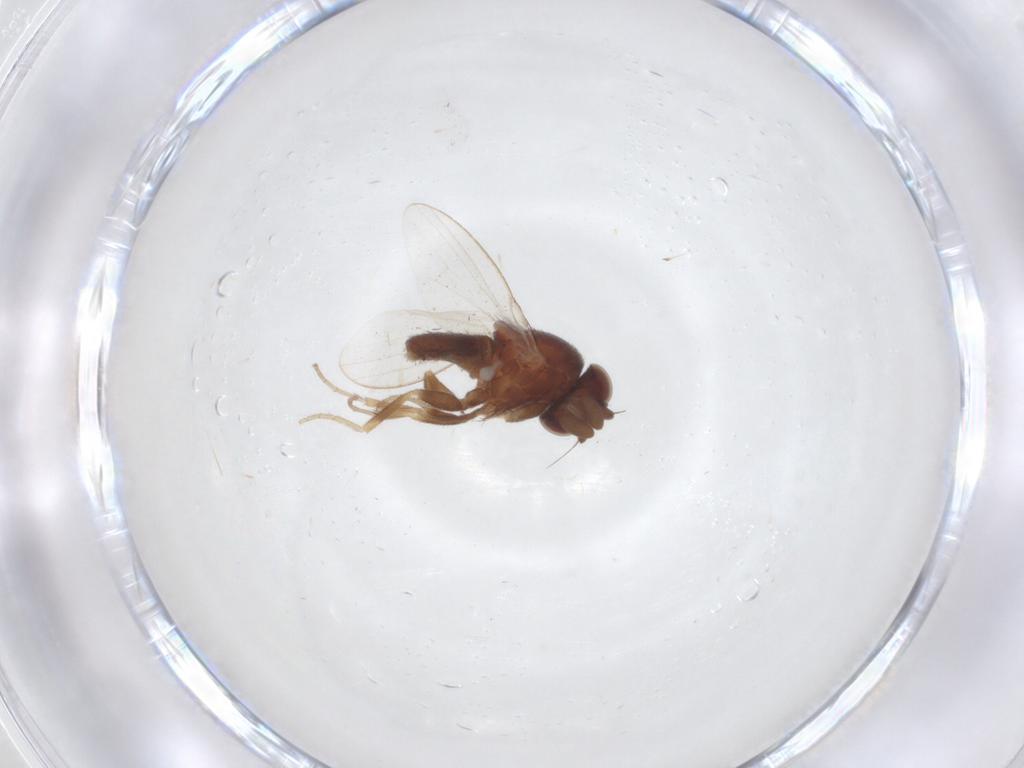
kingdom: Animalia
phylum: Arthropoda
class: Insecta
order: Diptera
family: Milichiidae
